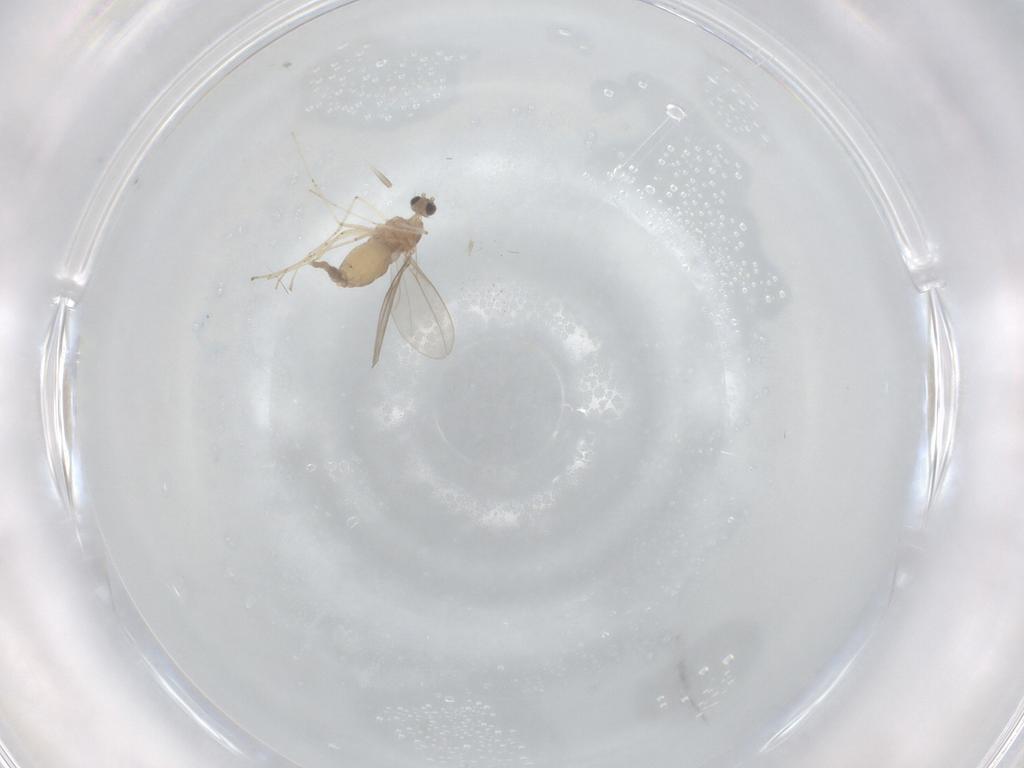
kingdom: Animalia
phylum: Arthropoda
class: Insecta
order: Diptera
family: Cecidomyiidae
